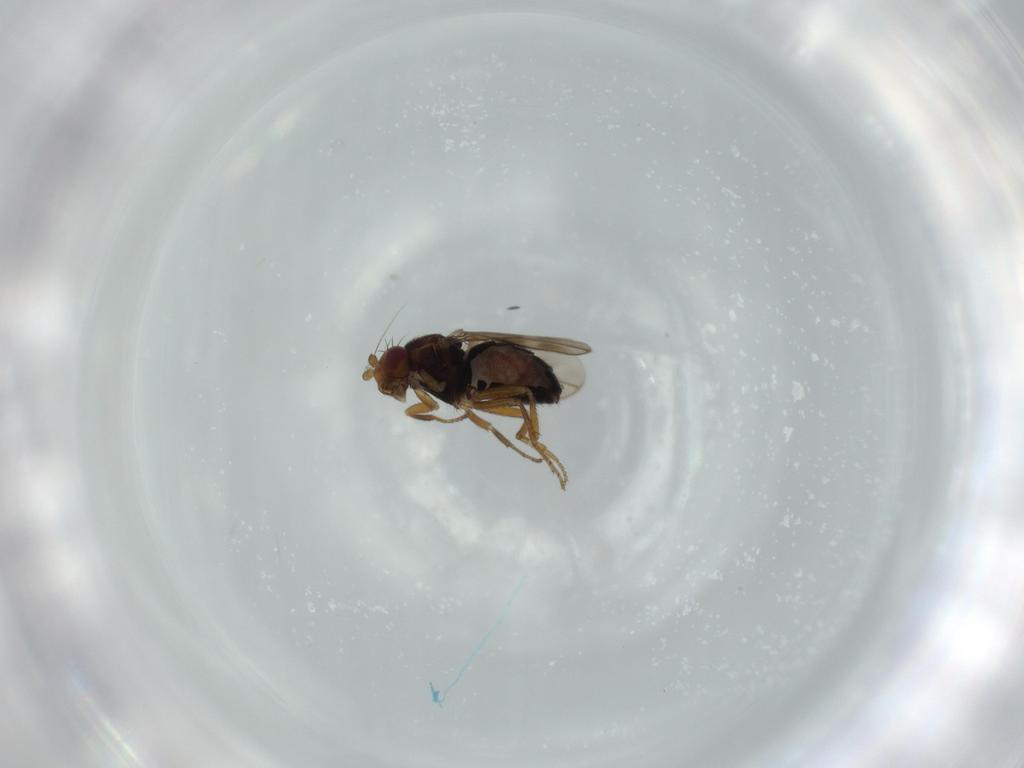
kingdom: Animalia
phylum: Arthropoda
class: Insecta
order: Diptera
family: Sphaeroceridae
